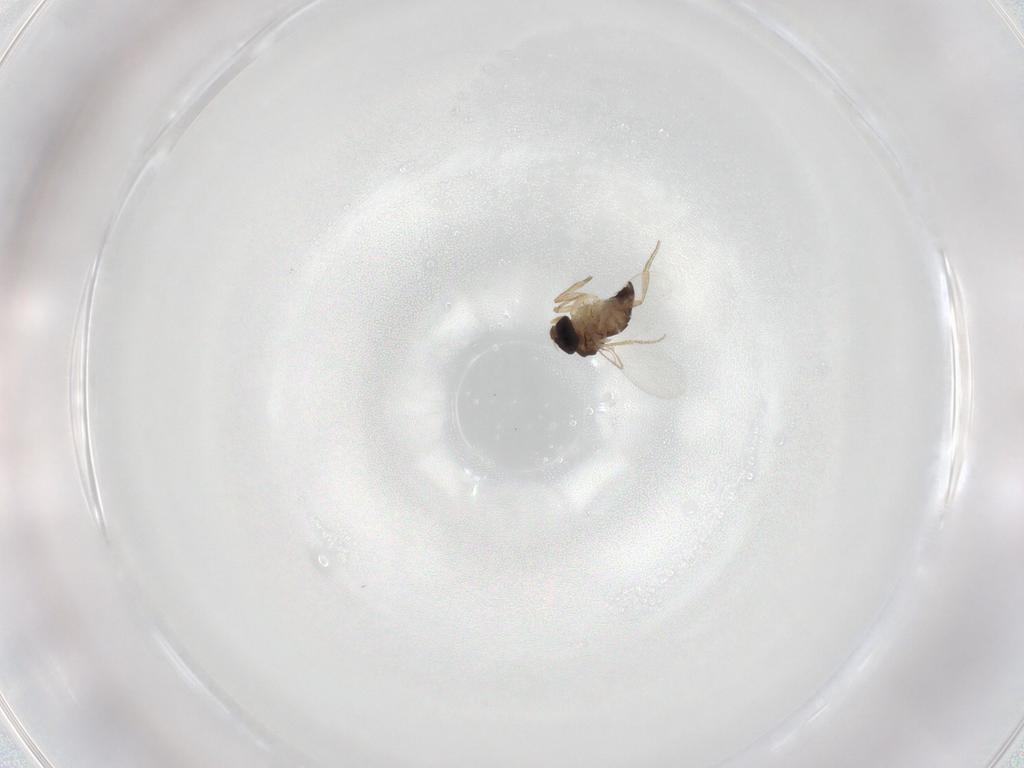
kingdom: Animalia
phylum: Arthropoda
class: Insecta
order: Diptera
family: Phoridae
